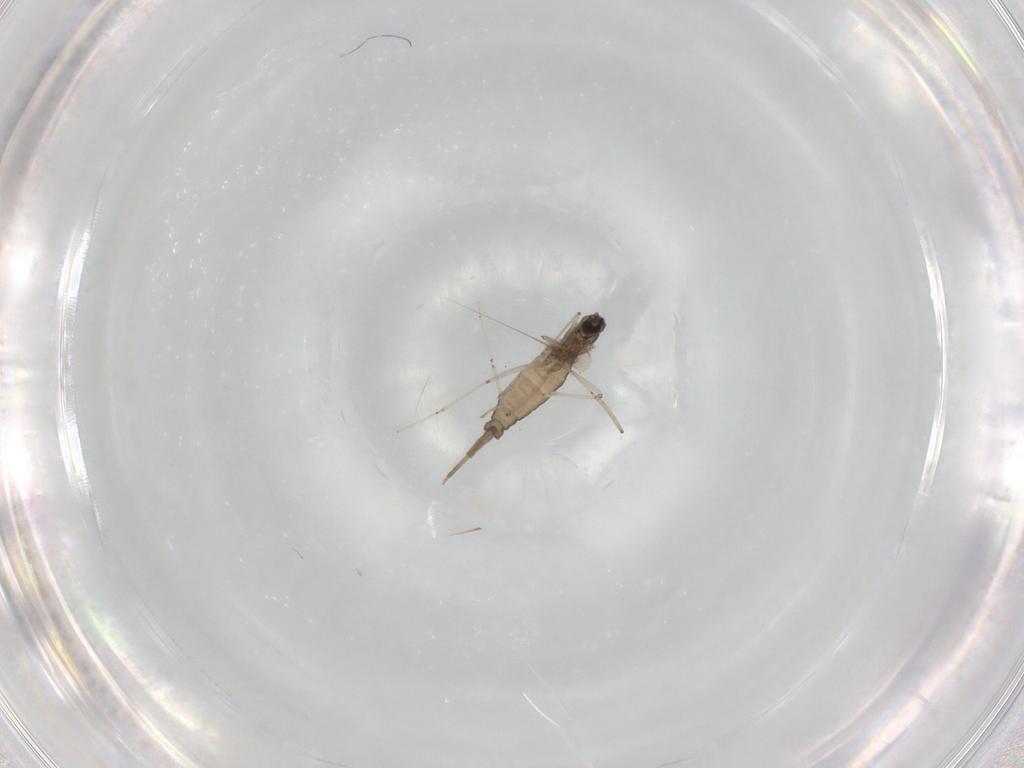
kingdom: Animalia
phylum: Arthropoda
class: Insecta
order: Diptera
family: Cecidomyiidae
